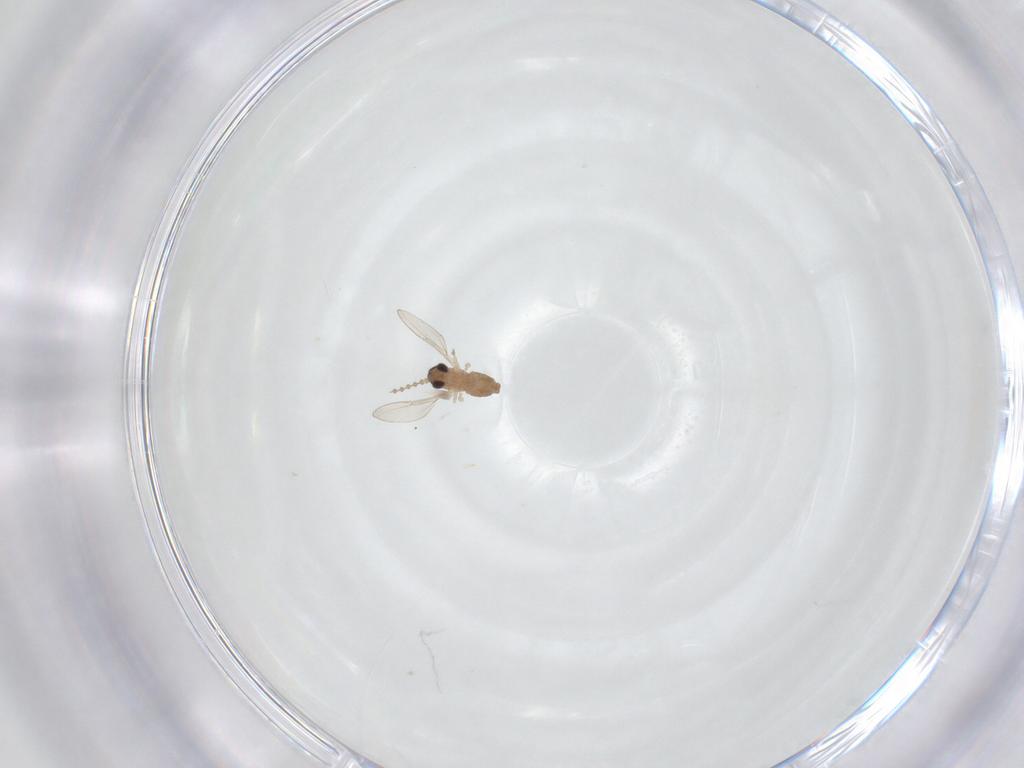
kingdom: Animalia
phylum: Arthropoda
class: Insecta
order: Diptera
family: Cecidomyiidae
